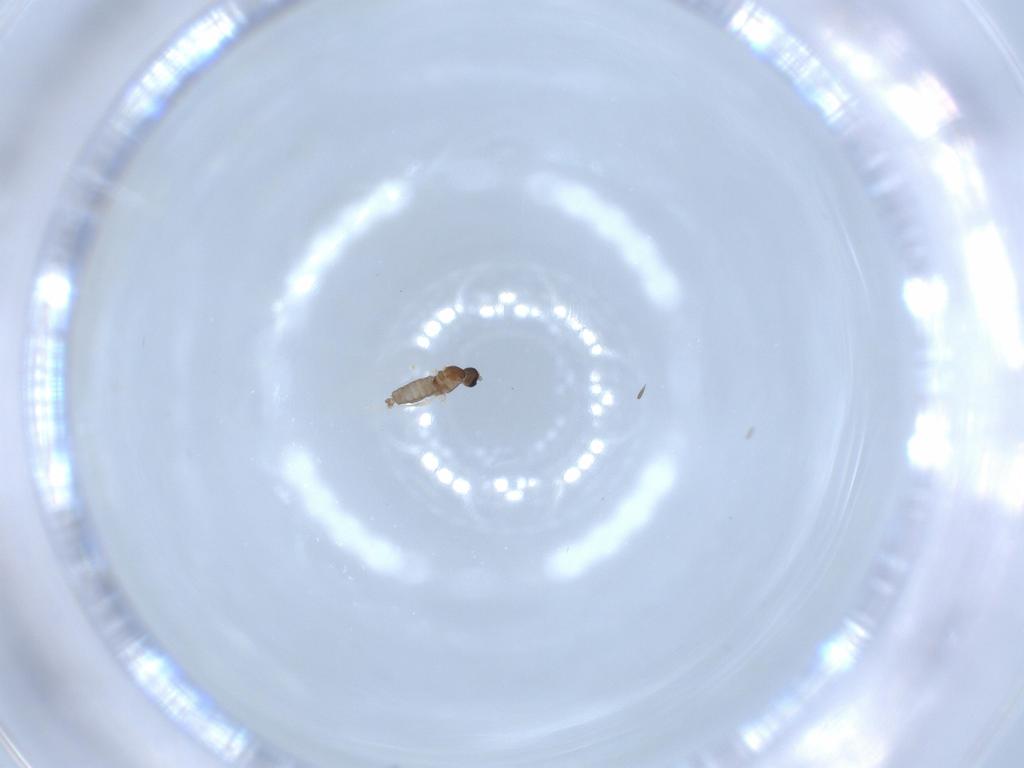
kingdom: Animalia
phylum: Arthropoda
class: Insecta
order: Diptera
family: Cecidomyiidae
